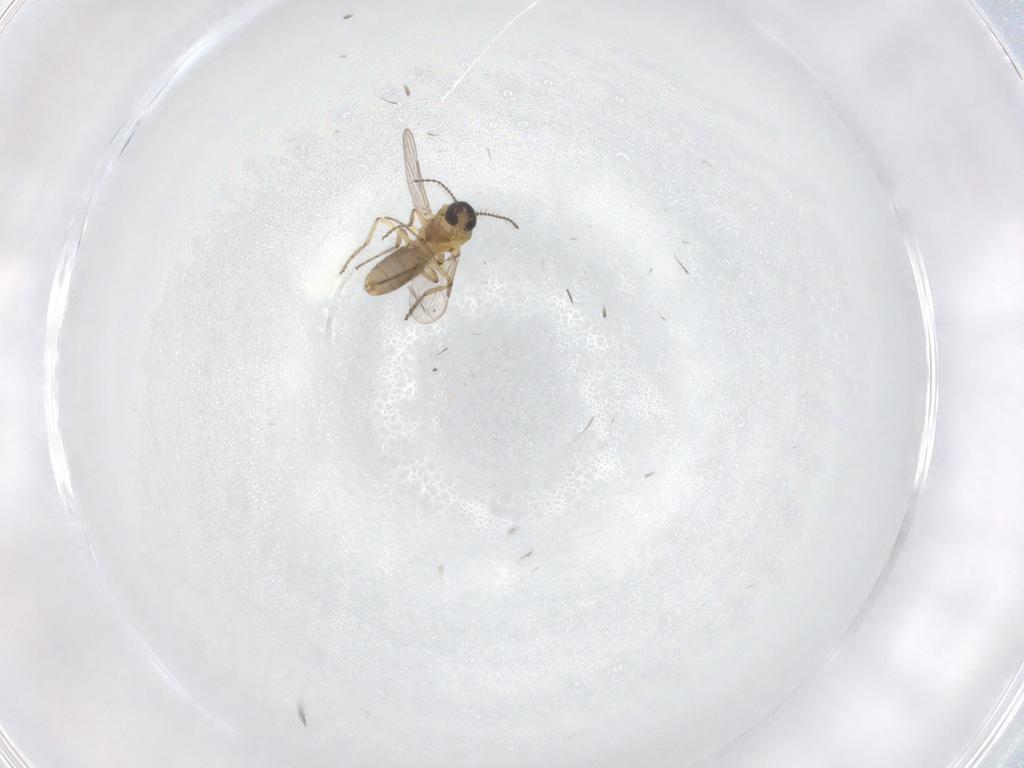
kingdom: Animalia
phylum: Arthropoda
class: Insecta
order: Diptera
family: Ceratopogonidae
